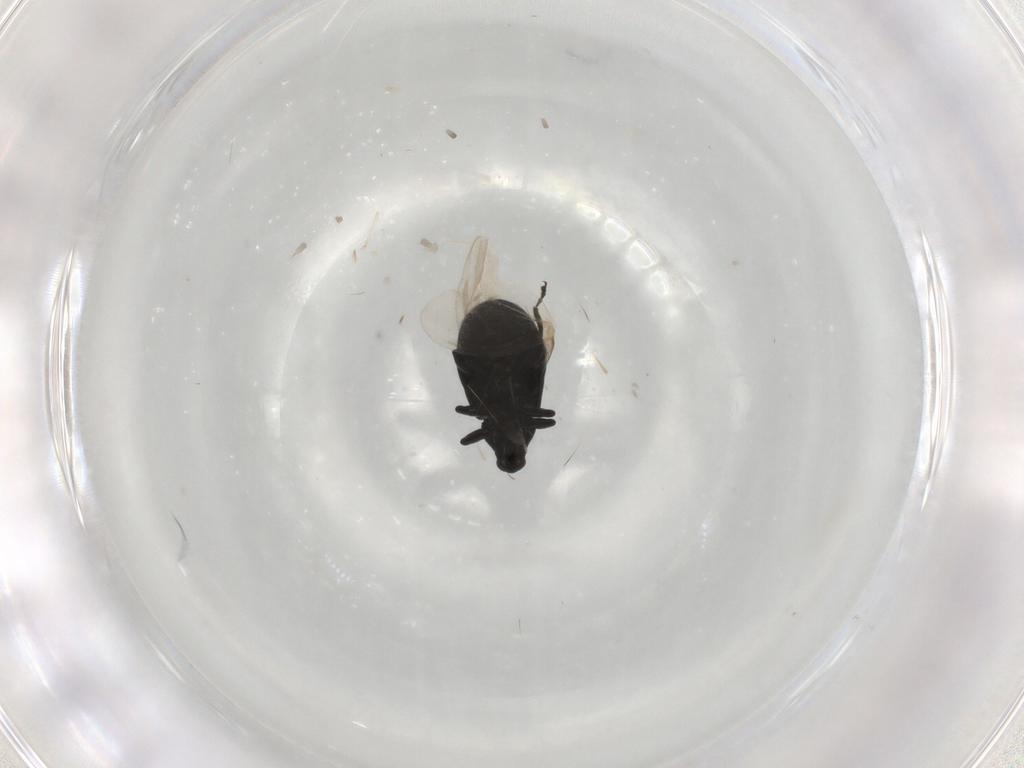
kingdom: Animalia
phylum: Arthropoda
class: Insecta
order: Coleoptera
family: Curculionidae
